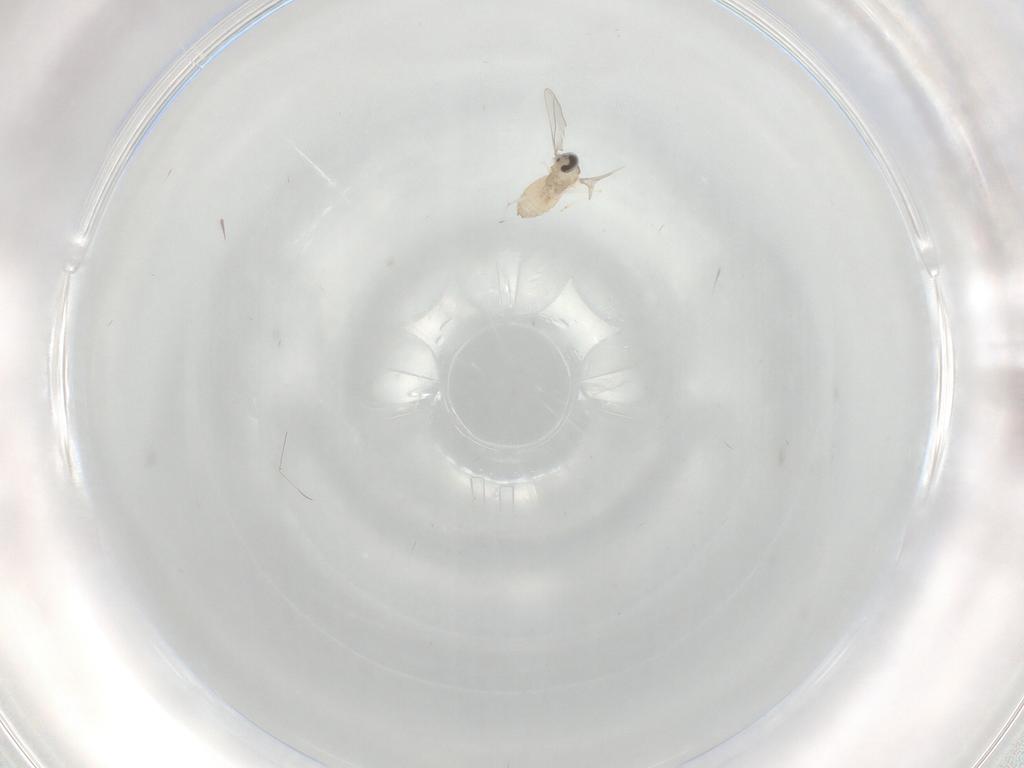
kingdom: Animalia
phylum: Arthropoda
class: Insecta
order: Diptera
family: Cecidomyiidae
